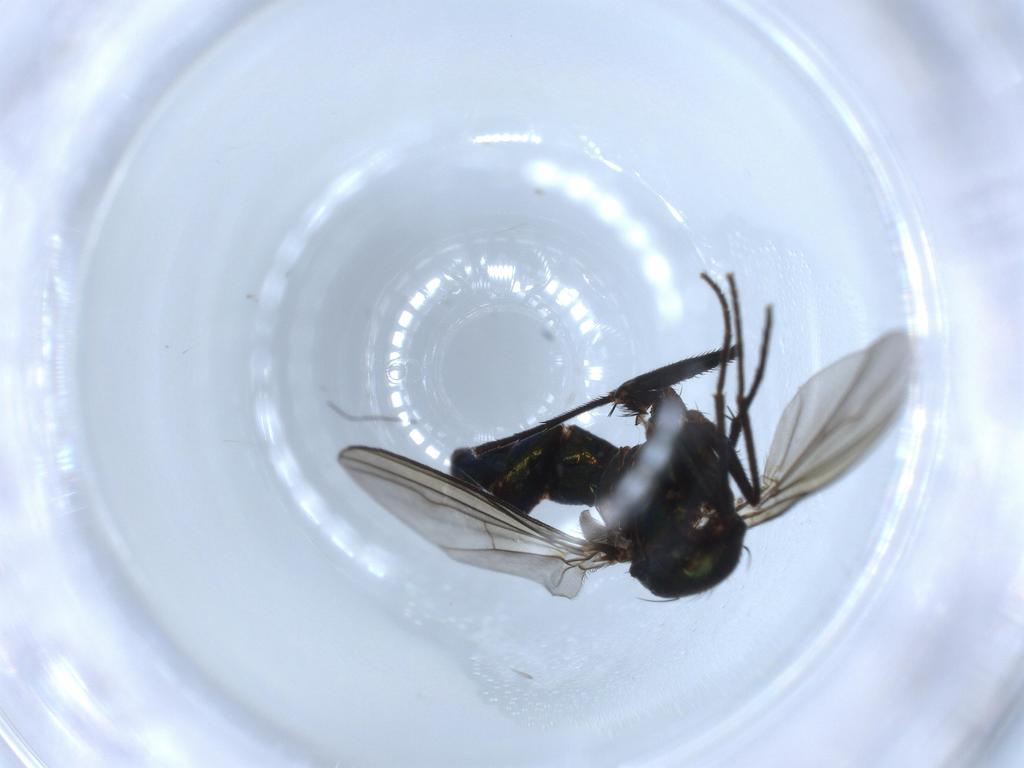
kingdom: Animalia
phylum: Arthropoda
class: Insecta
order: Diptera
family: Dolichopodidae
